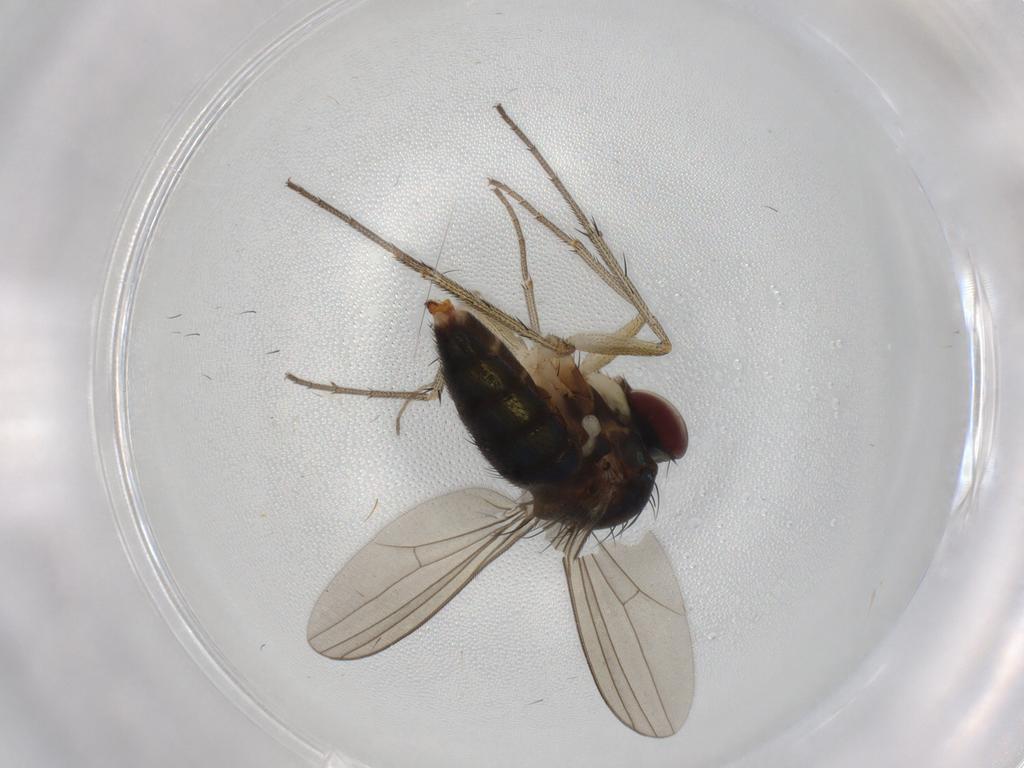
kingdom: Animalia
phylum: Arthropoda
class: Insecta
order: Diptera
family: Dolichopodidae
